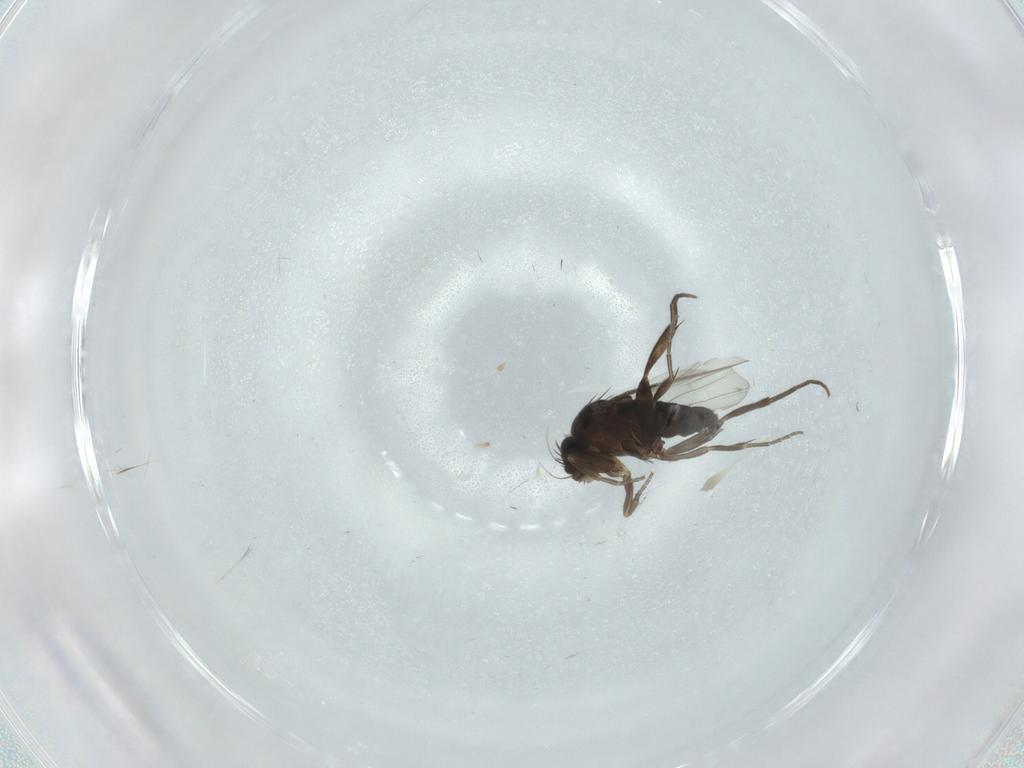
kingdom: Animalia
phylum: Arthropoda
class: Insecta
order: Diptera
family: Phoridae
